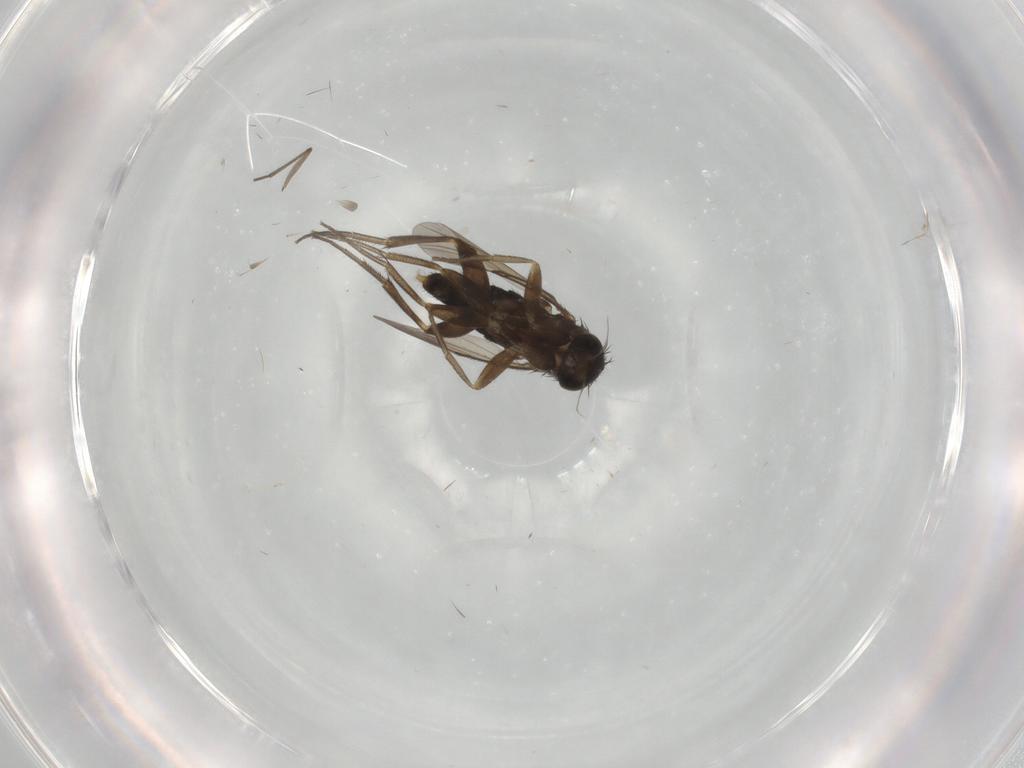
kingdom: Animalia
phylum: Arthropoda
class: Insecta
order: Diptera
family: Sciaridae
